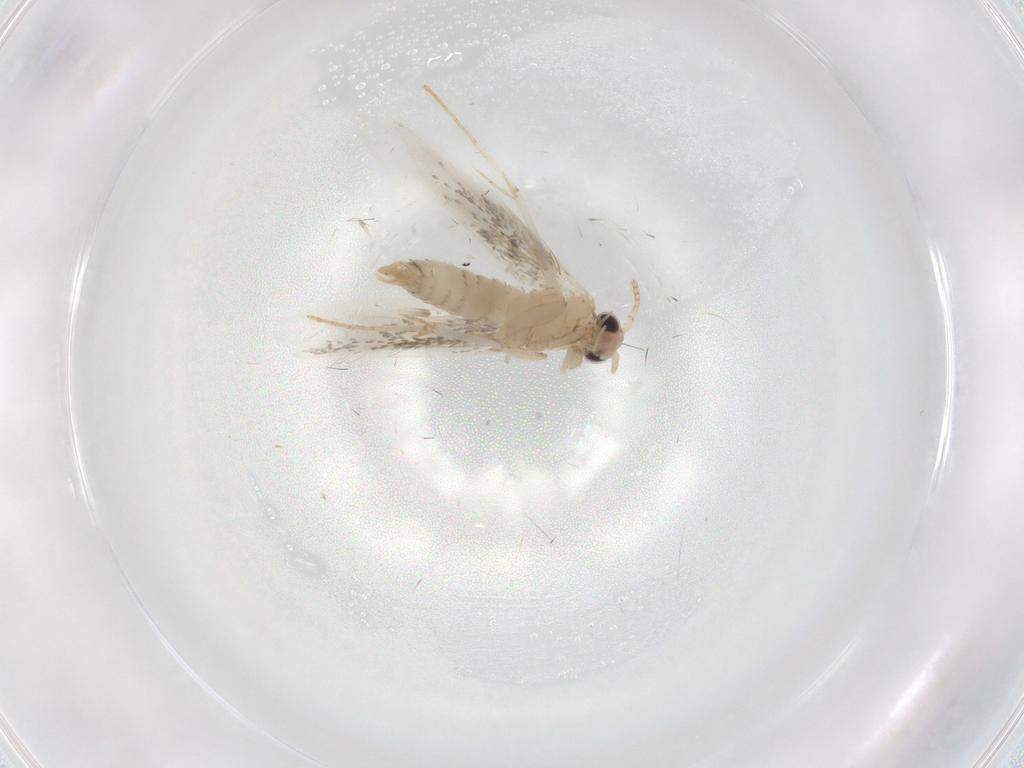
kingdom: Animalia
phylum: Arthropoda
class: Insecta
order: Lepidoptera
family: Tineidae
